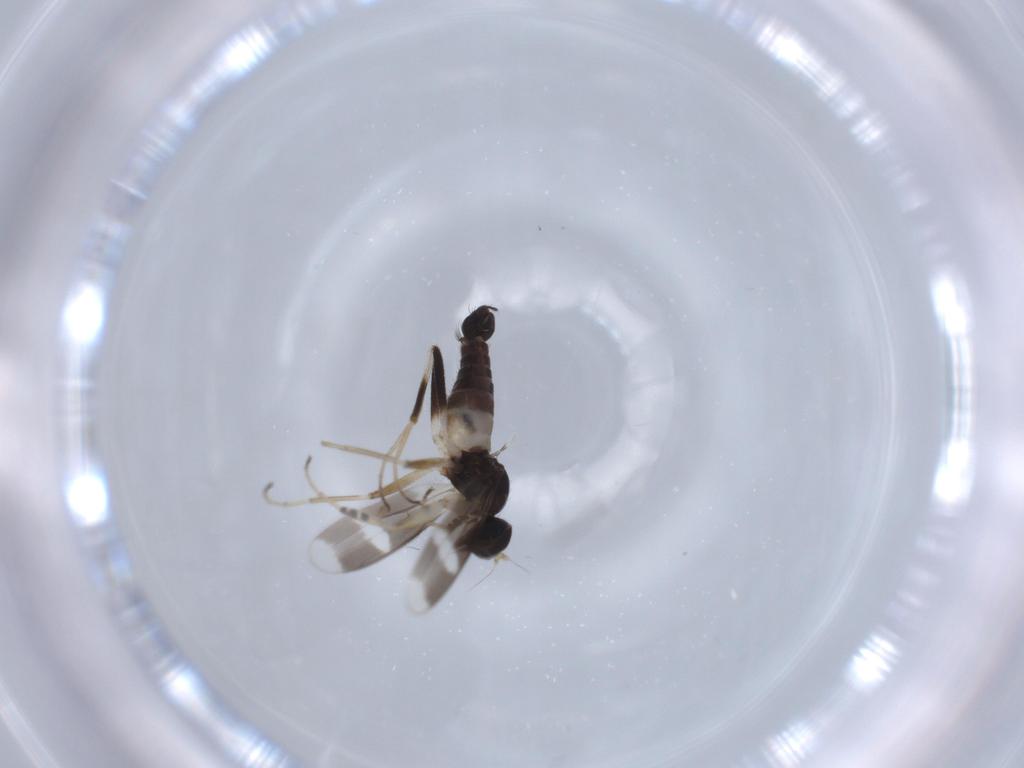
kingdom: Animalia
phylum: Arthropoda
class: Insecta
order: Diptera
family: Hybotidae
